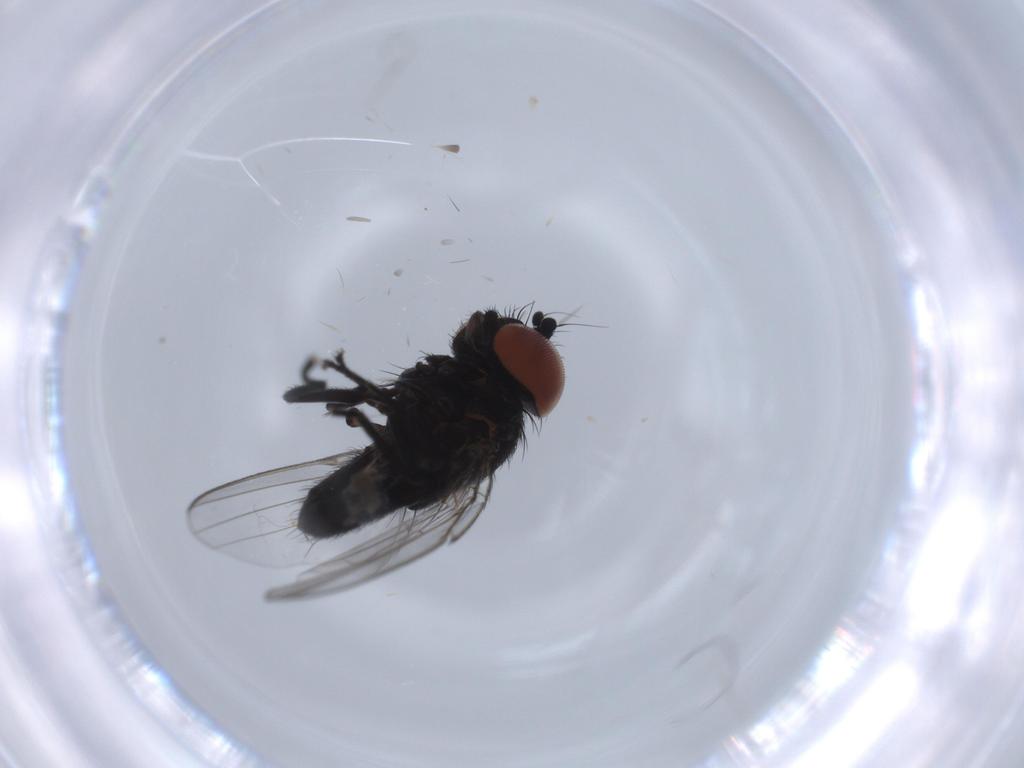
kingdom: Animalia
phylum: Arthropoda
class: Insecta
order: Diptera
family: Milichiidae
